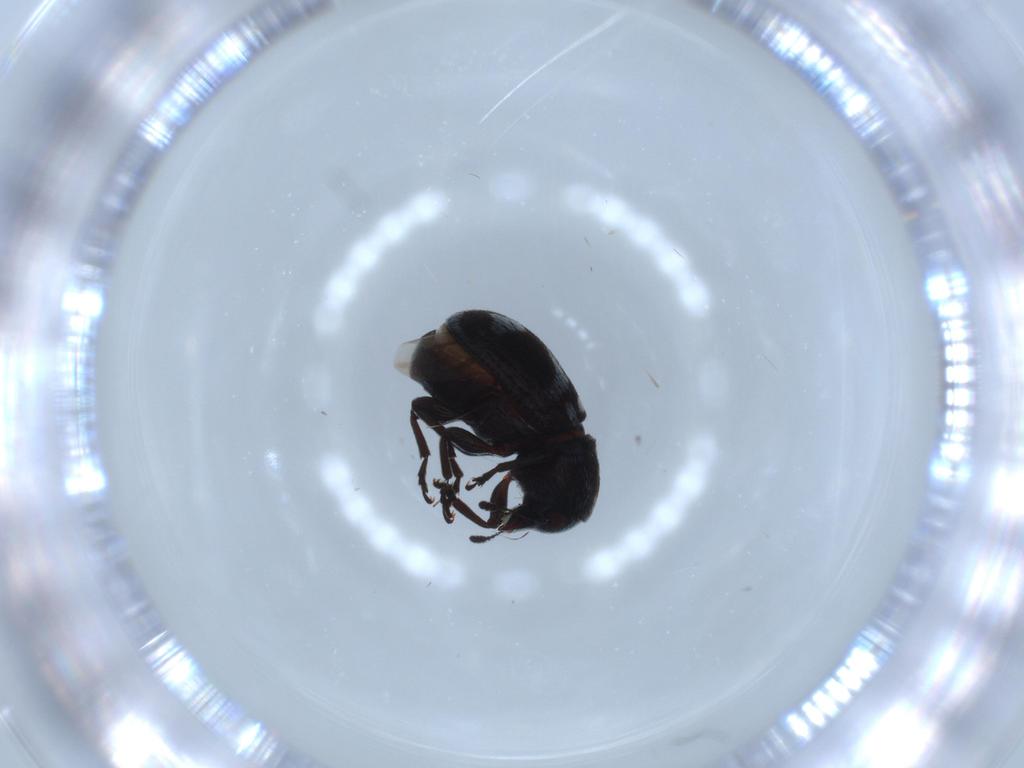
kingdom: Animalia
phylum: Arthropoda
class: Insecta
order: Coleoptera
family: Anthribidae
